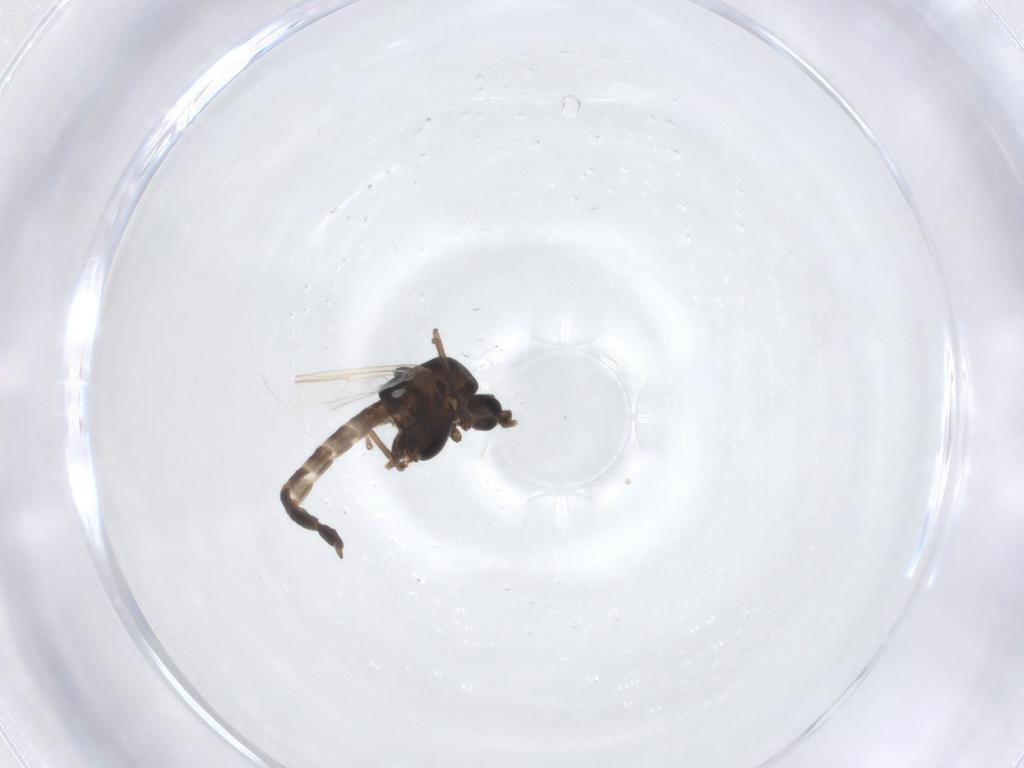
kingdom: Animalia
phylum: Arthropoda
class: Insecta
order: Diptera
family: Chironomidae
